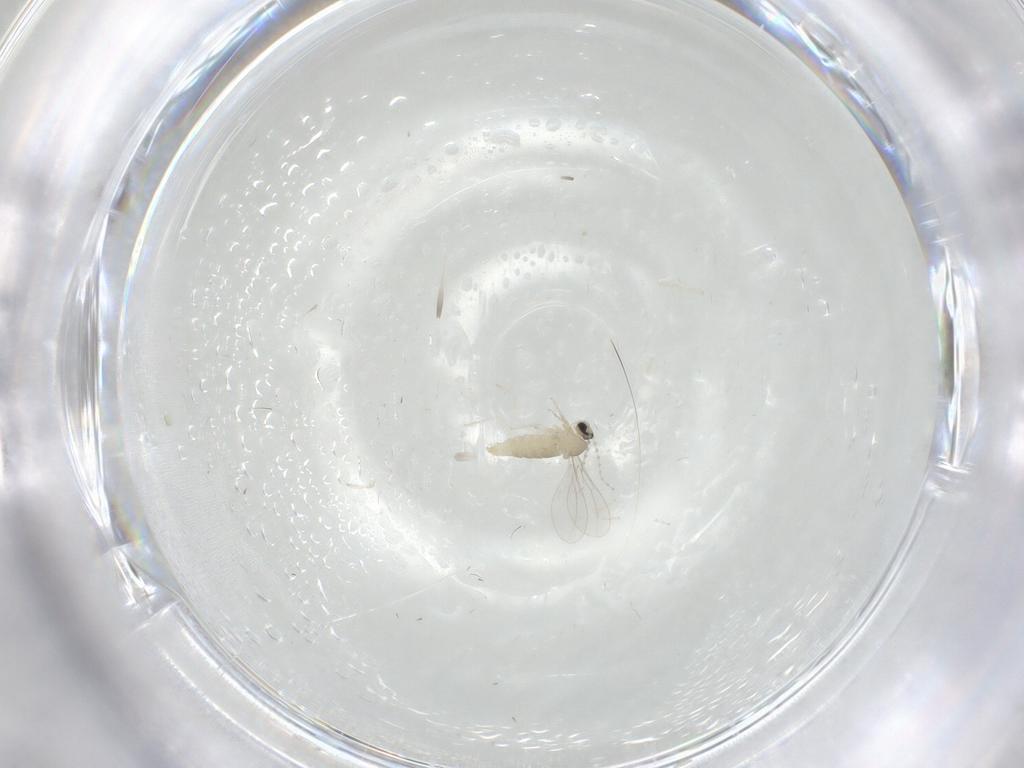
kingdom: Animalia
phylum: Arthropoda
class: Insecta
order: Diptera
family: Cecidomyiidae
